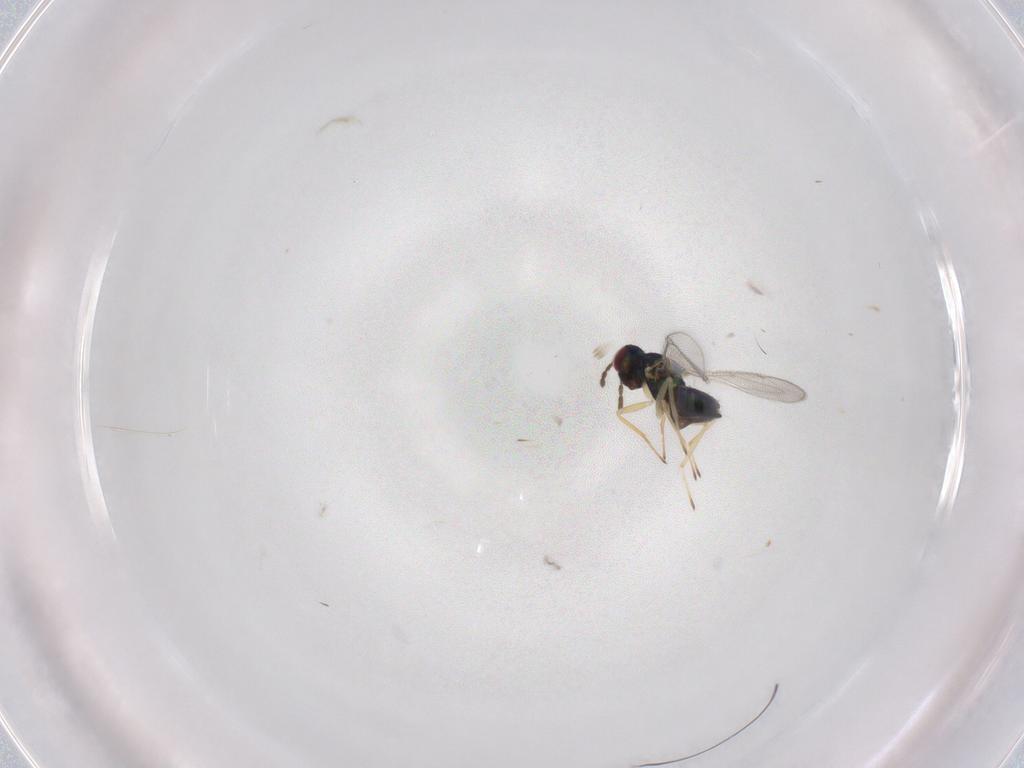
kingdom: Animalia
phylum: Arthropoda
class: Insecta
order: Hymenoptera
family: Eulophidae
